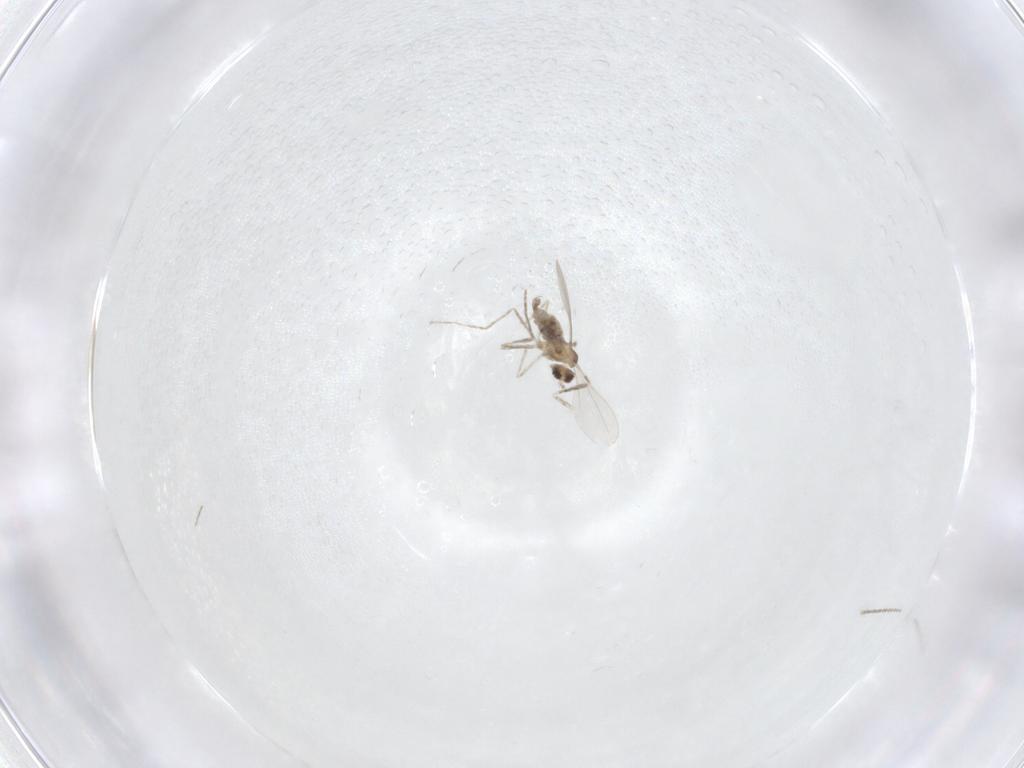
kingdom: Animalia
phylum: Arthropoda
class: Insecta
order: Diptera
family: Cecidomyiidae
